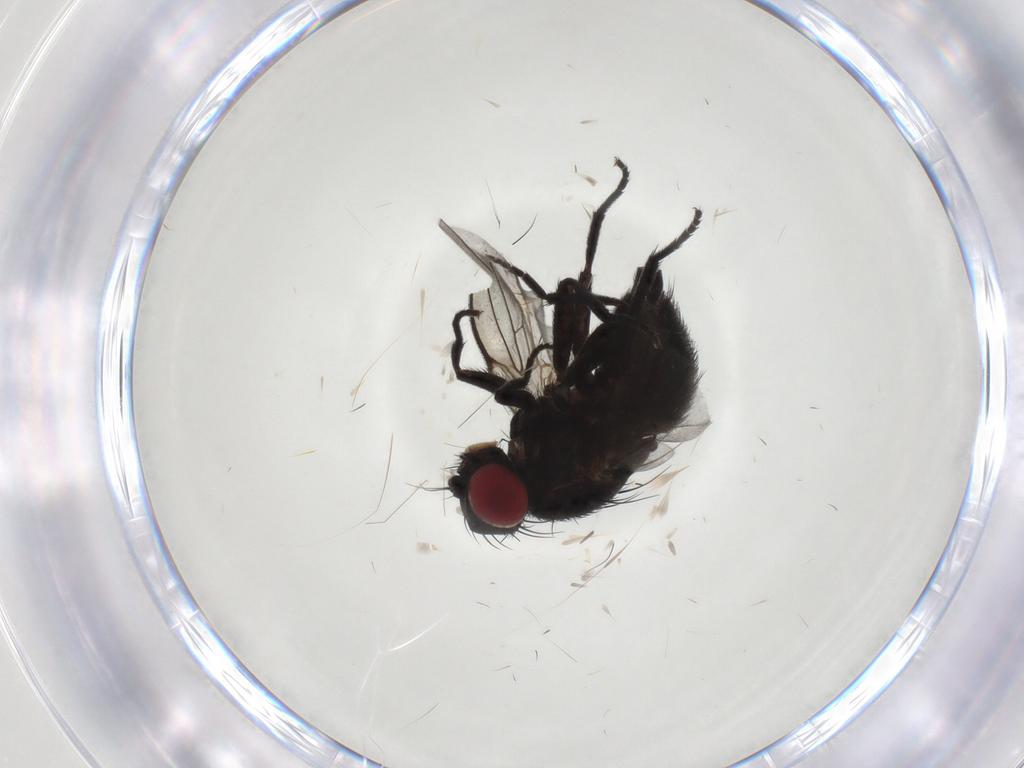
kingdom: Animalia
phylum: Arthropoda
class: Insecta
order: Diptera
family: Agromyzidae
